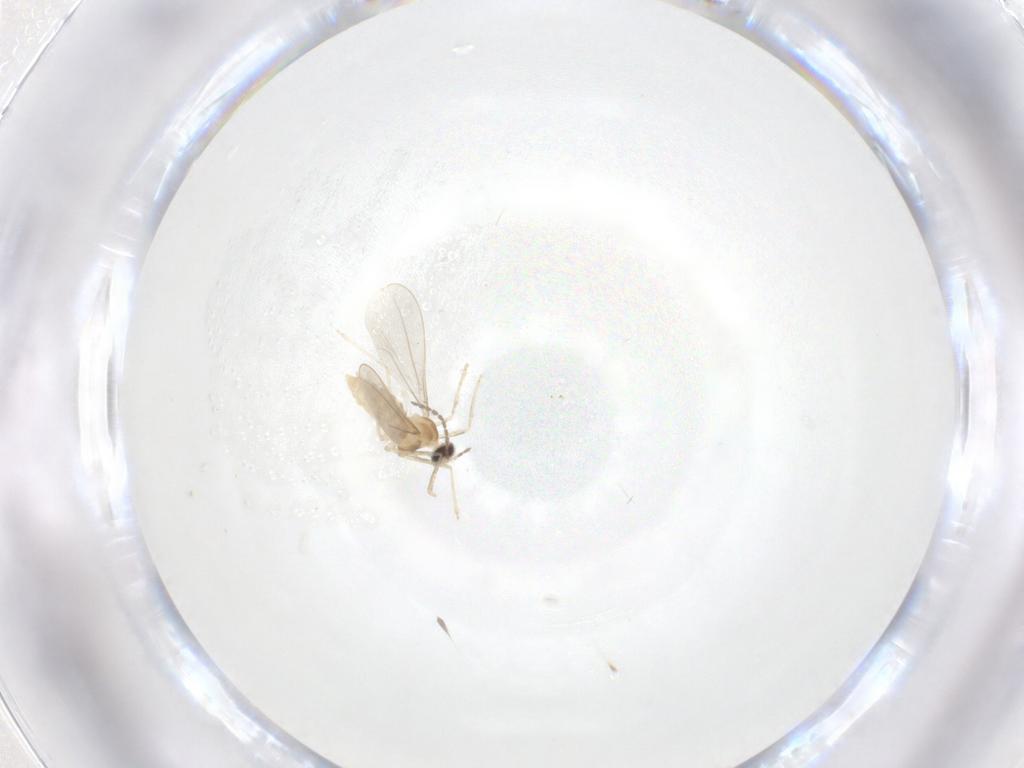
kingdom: Animalia
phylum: Arthropoda
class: Insecta
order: Diptera
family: Cecidomyiidae
